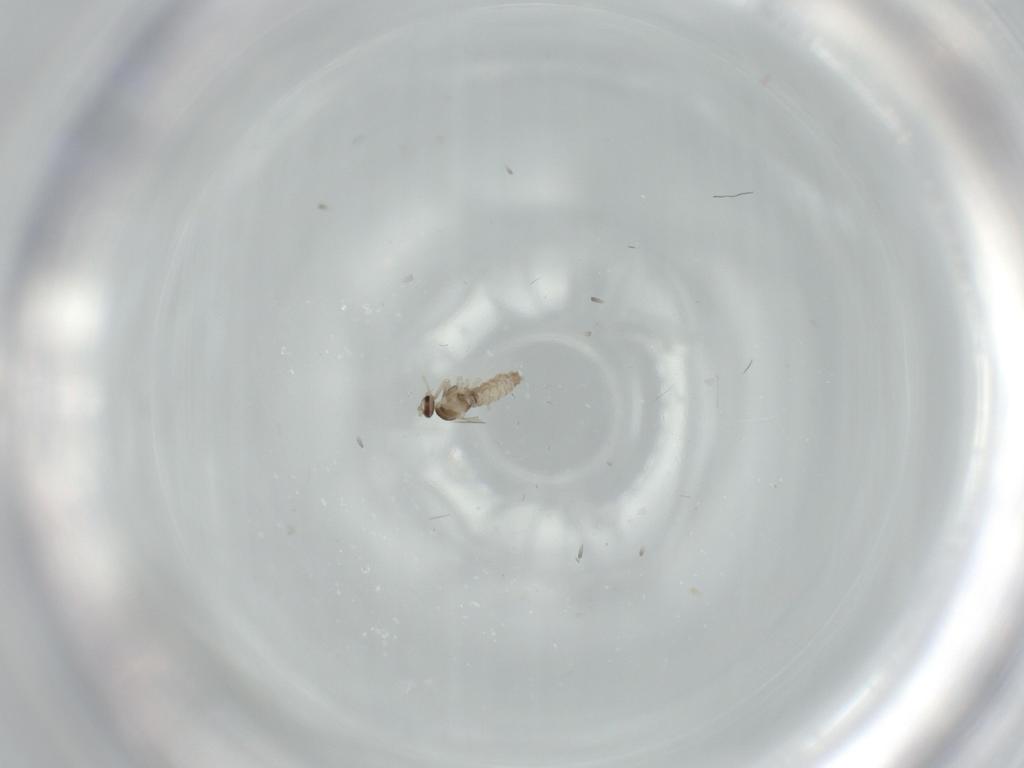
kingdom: Animalia
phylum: Arthropoda
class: Insecta
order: Diptera
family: Cecidomyiidae
